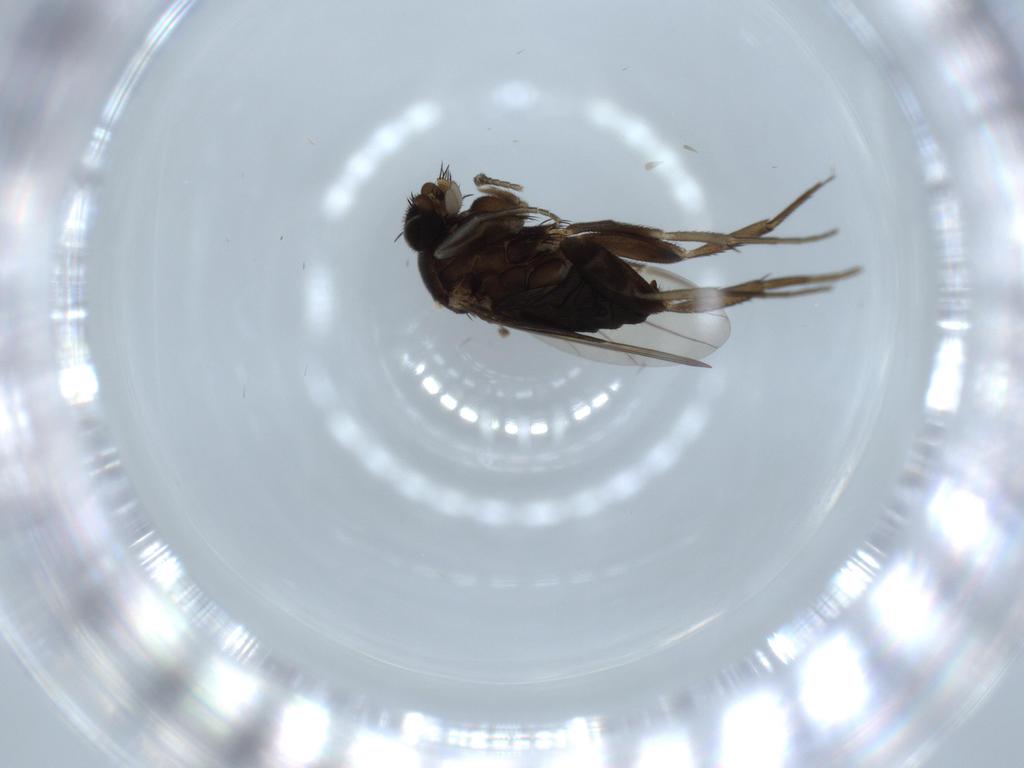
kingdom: Animalia
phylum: Arthropoda
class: Insecta
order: Diptera
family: Phoridae
